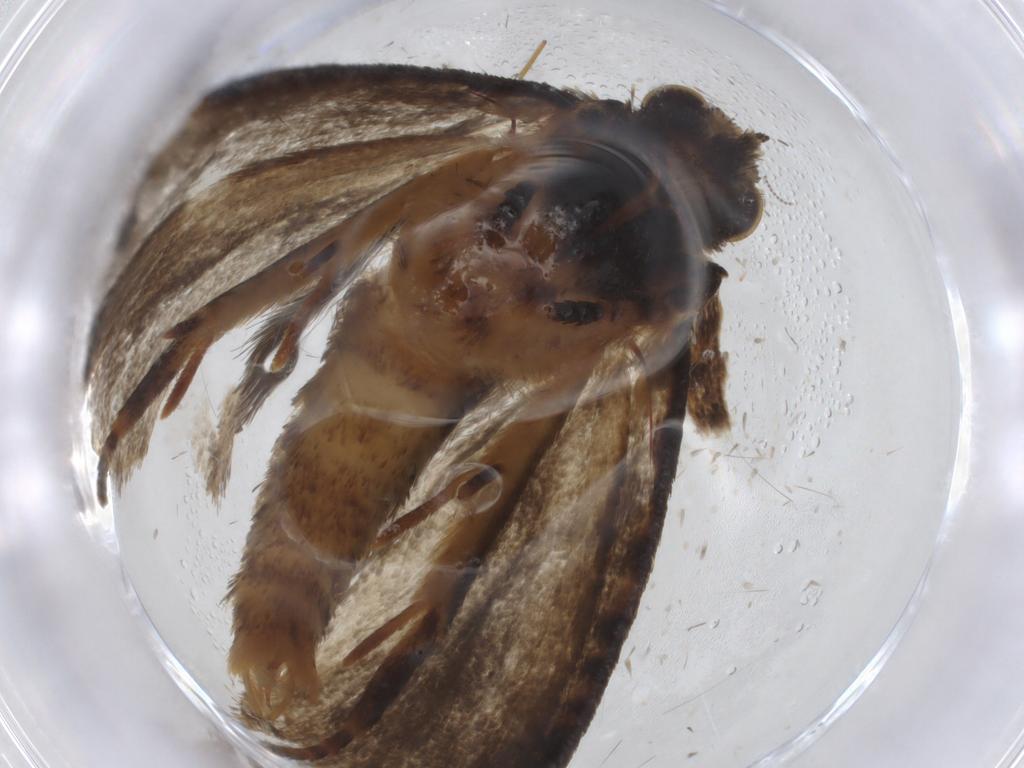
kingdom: Animalia
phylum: Arthropoda
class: Insecta
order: Lepidoptera
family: Tineidae
